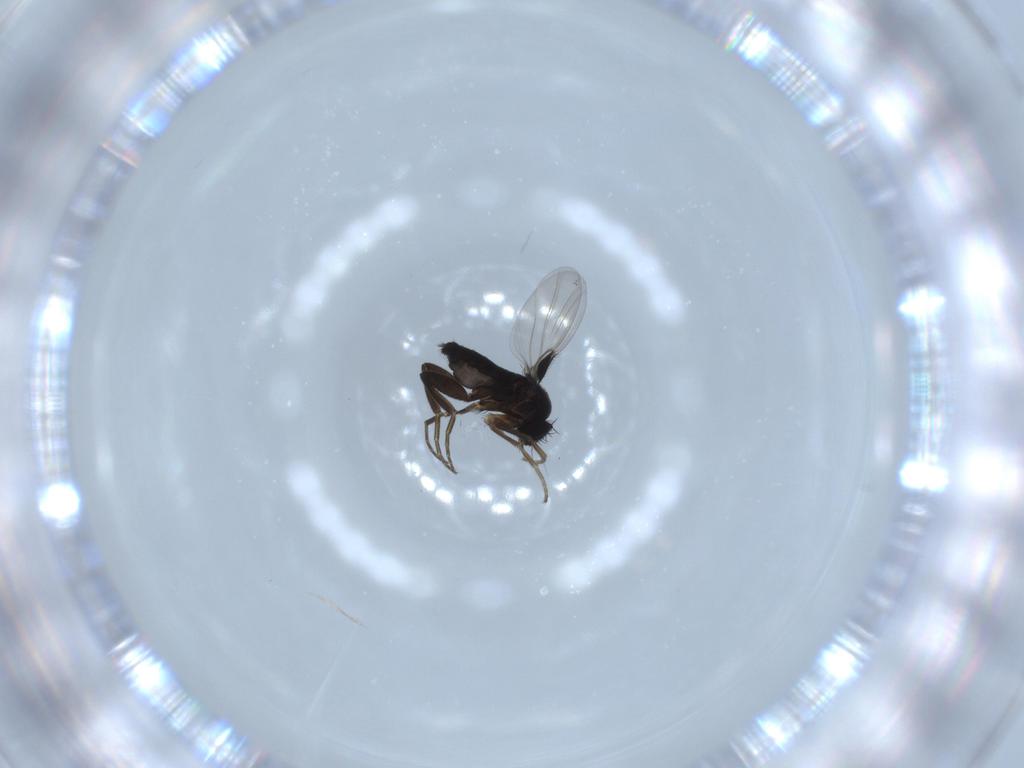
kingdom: Animalia
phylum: Arthropoda
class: Insecta
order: Diptera
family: Phoridae
